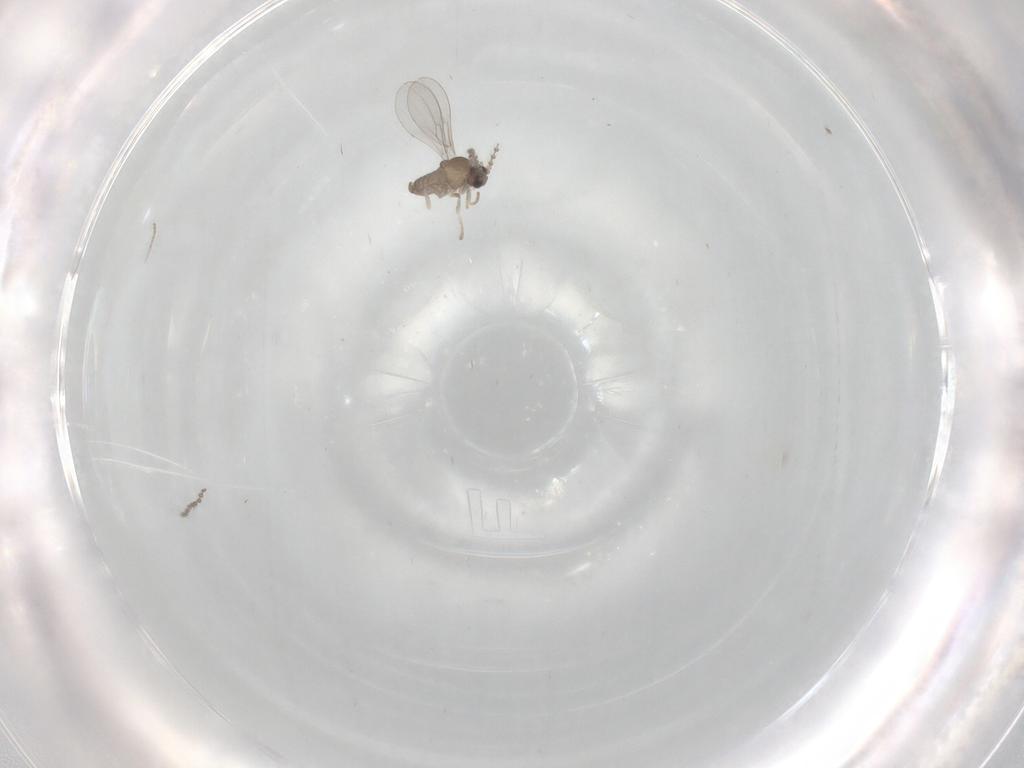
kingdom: Animalia
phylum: Arthropoda
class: Insecta
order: Diptera
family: Cecidomyiidae
